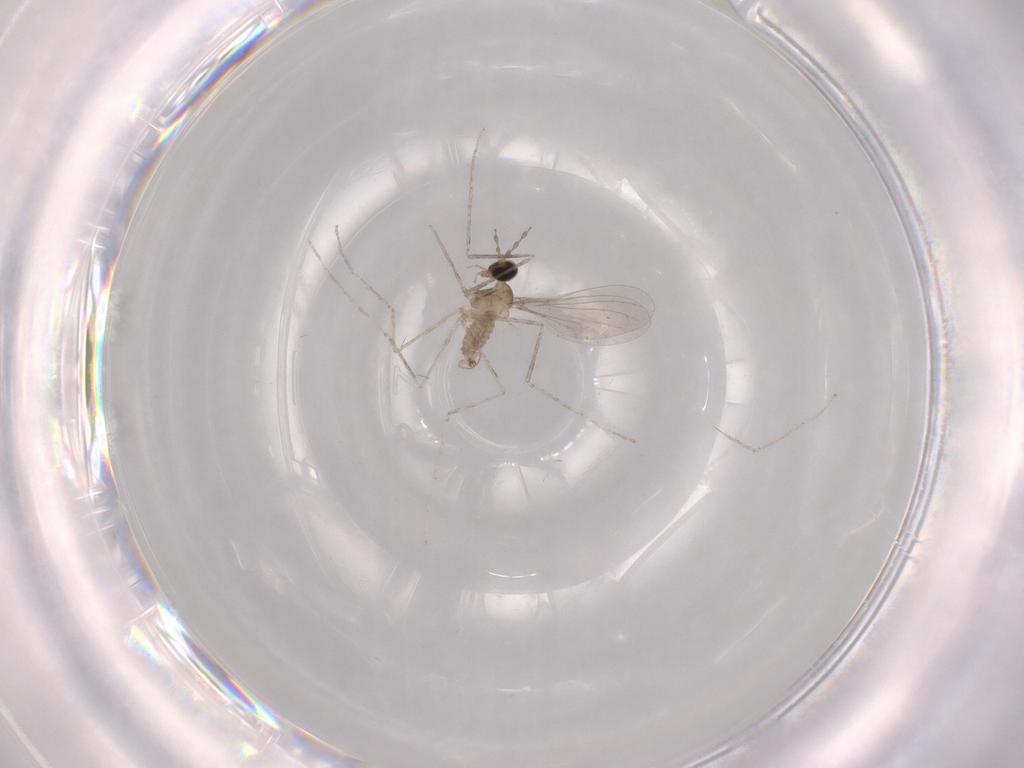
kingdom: Animalia
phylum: Arthropoda
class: Insecta
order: Diptera
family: Cecidomyiidae
